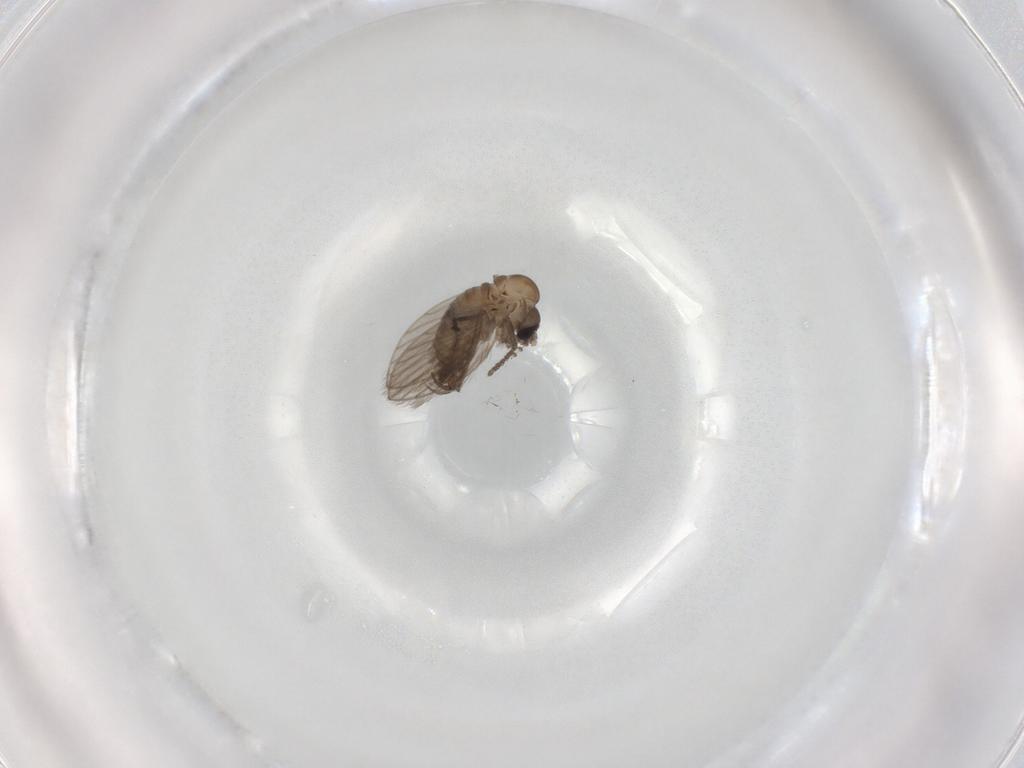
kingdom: Animalia
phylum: Arthropoda
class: Insecta
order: Diptera
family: Psychodidae
